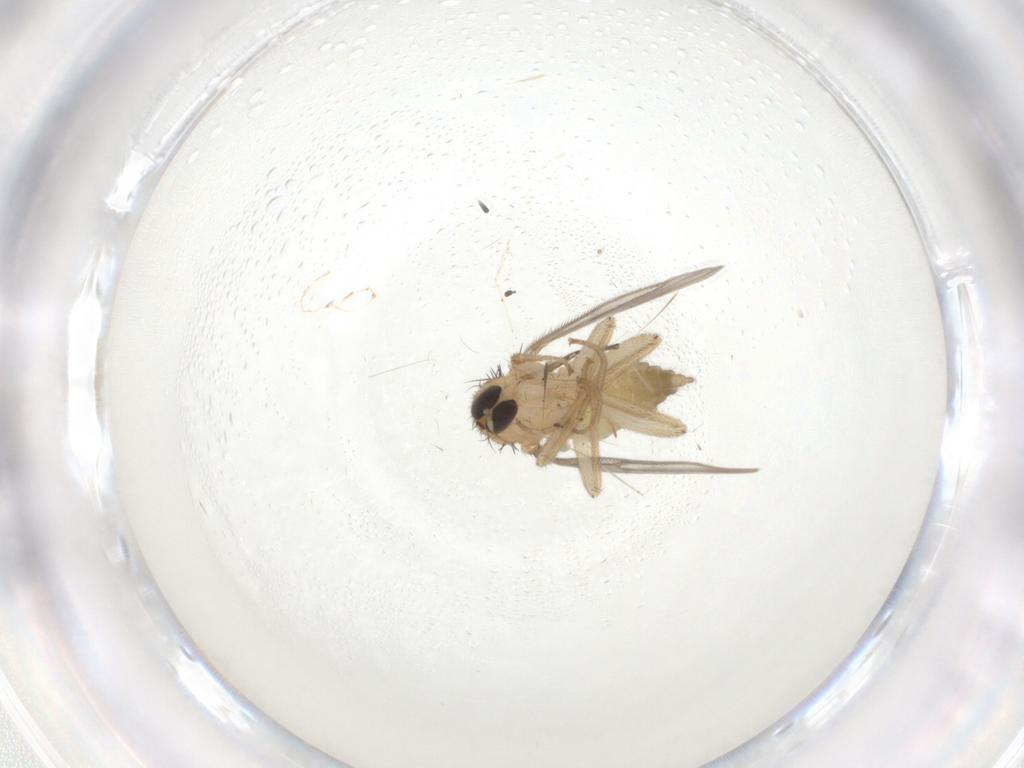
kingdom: Animalia
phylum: Arthropoda
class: Insecta
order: Diptera
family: Hybotidae
